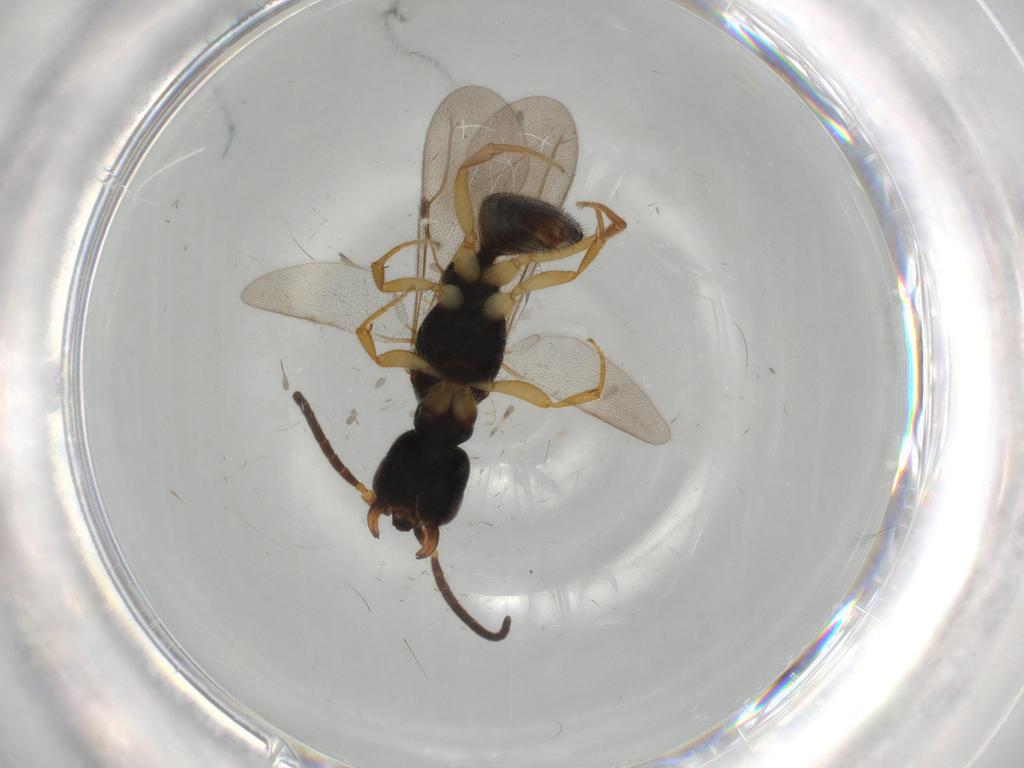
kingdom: Animalia
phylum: Arthropoda
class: Insecta
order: Hymenoptera
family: Bethylidae
